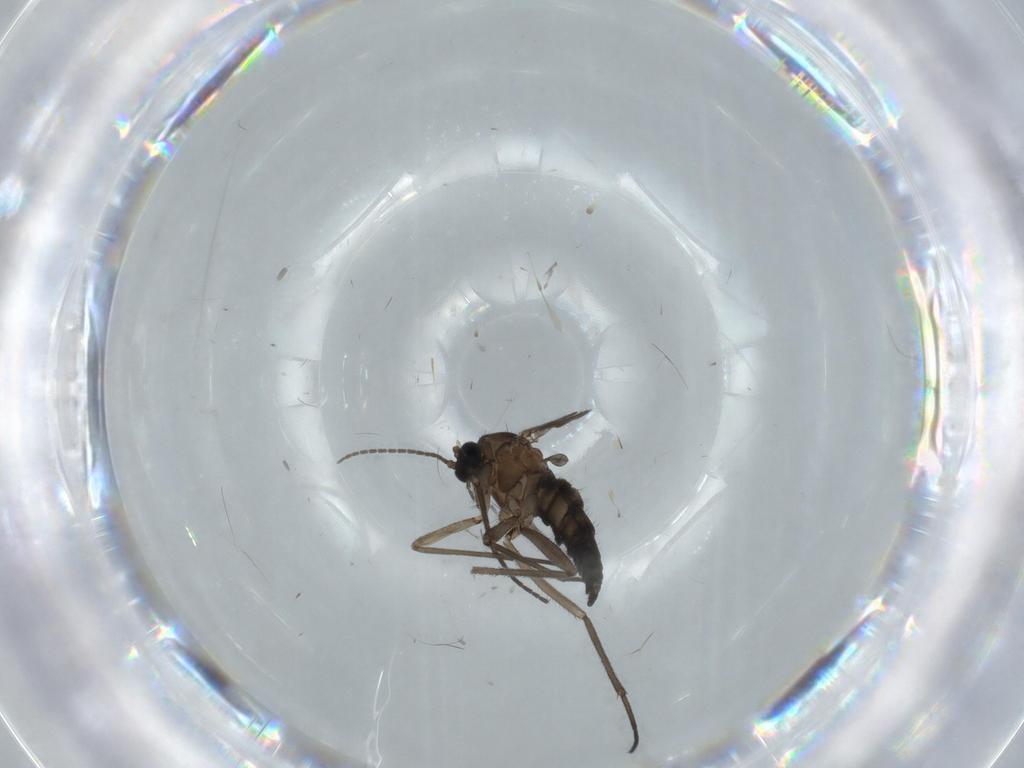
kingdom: Animalia
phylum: Arthropoda
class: Insecta
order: Diptera
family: Sciaridae
